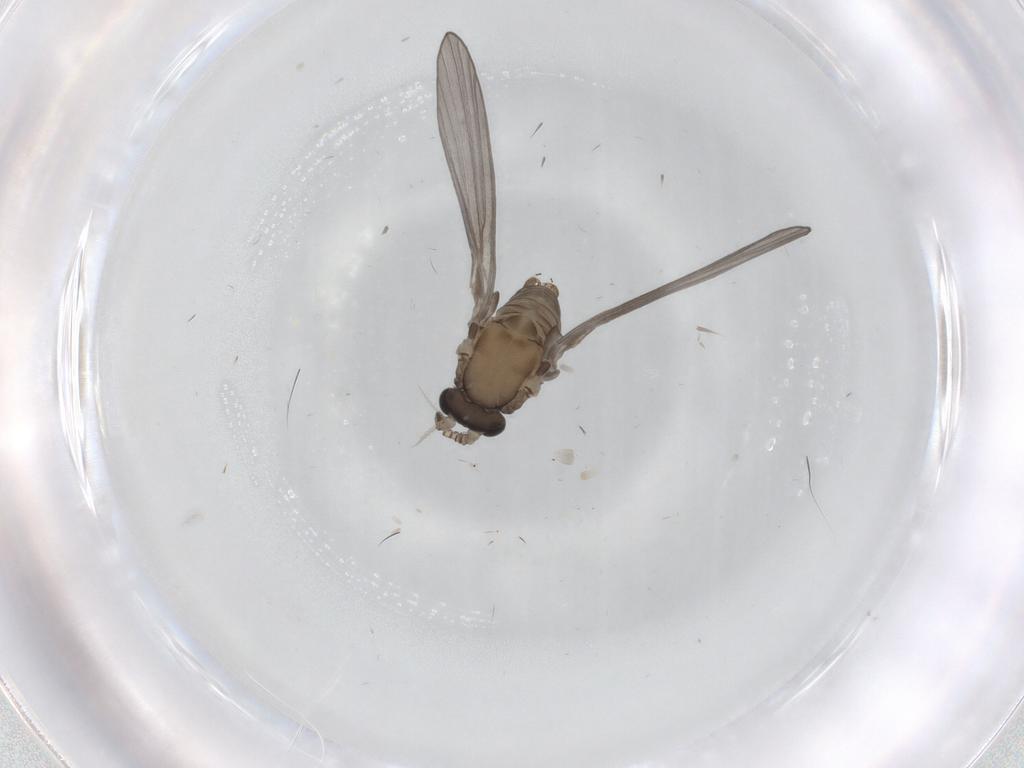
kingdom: Animalia
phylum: Arthropoda
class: Insecta
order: Diptera
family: Psychodidae
